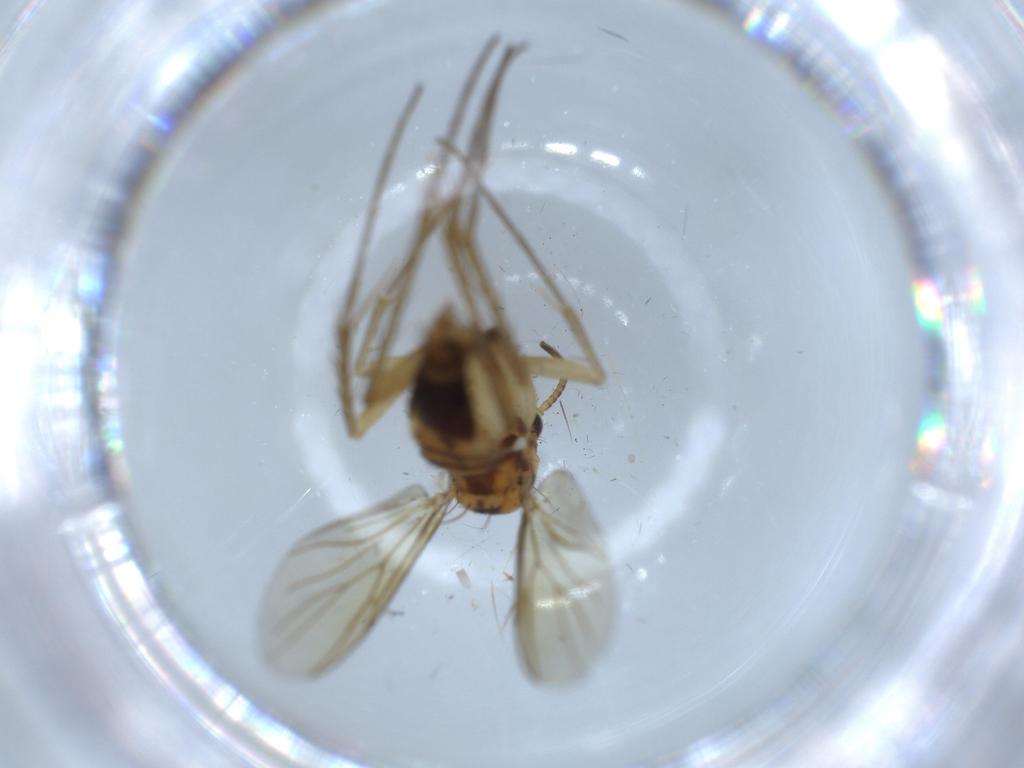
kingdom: Animalia
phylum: Arthropoda
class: Insecta
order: Diptera
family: Mycetophilidae
